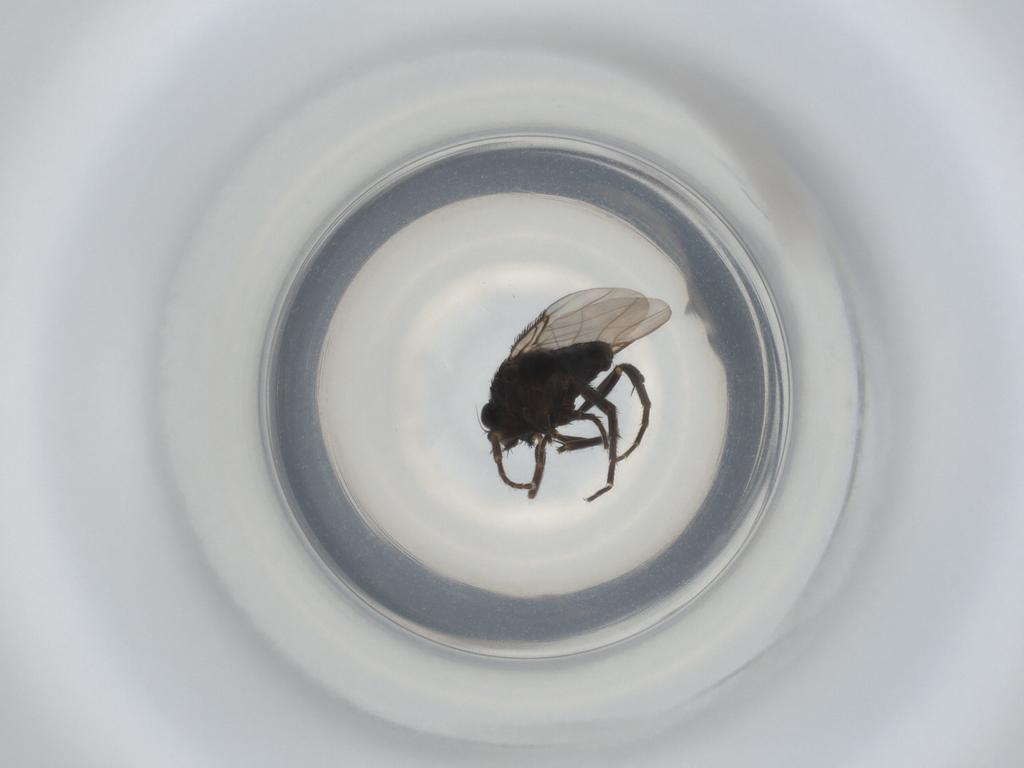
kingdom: Animalia
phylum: Arthropoda
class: Insecta
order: Diptera
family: Phoridae
